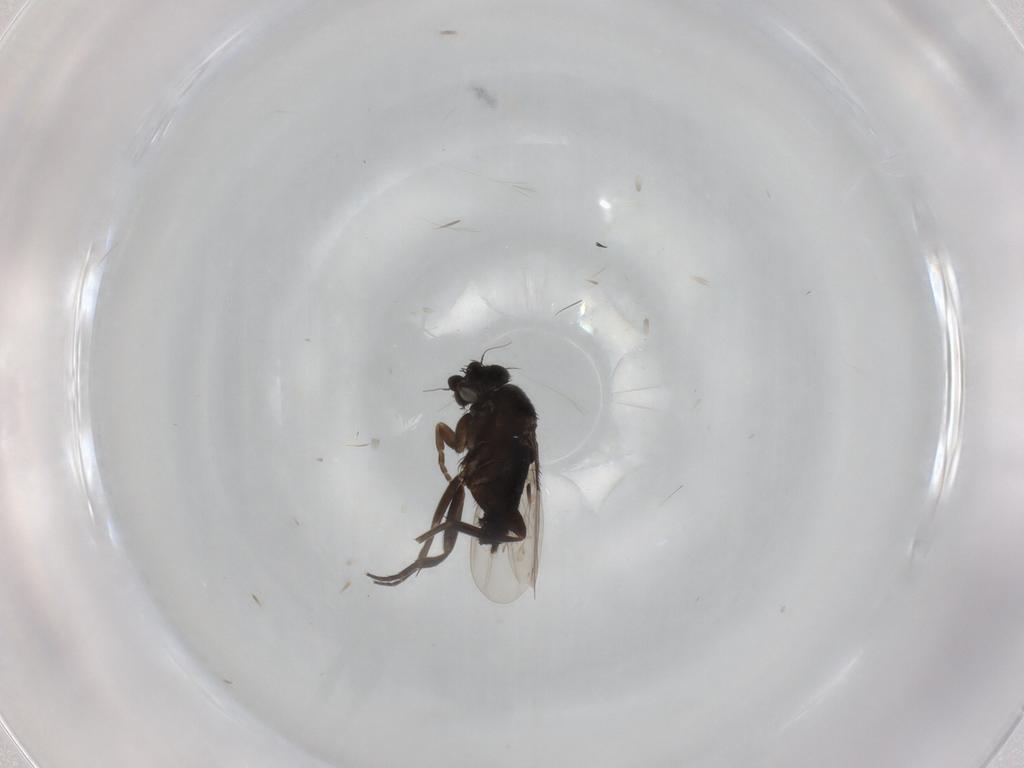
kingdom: Animalia
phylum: Arthropoda
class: Insecta
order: Diptera
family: Phoridae
